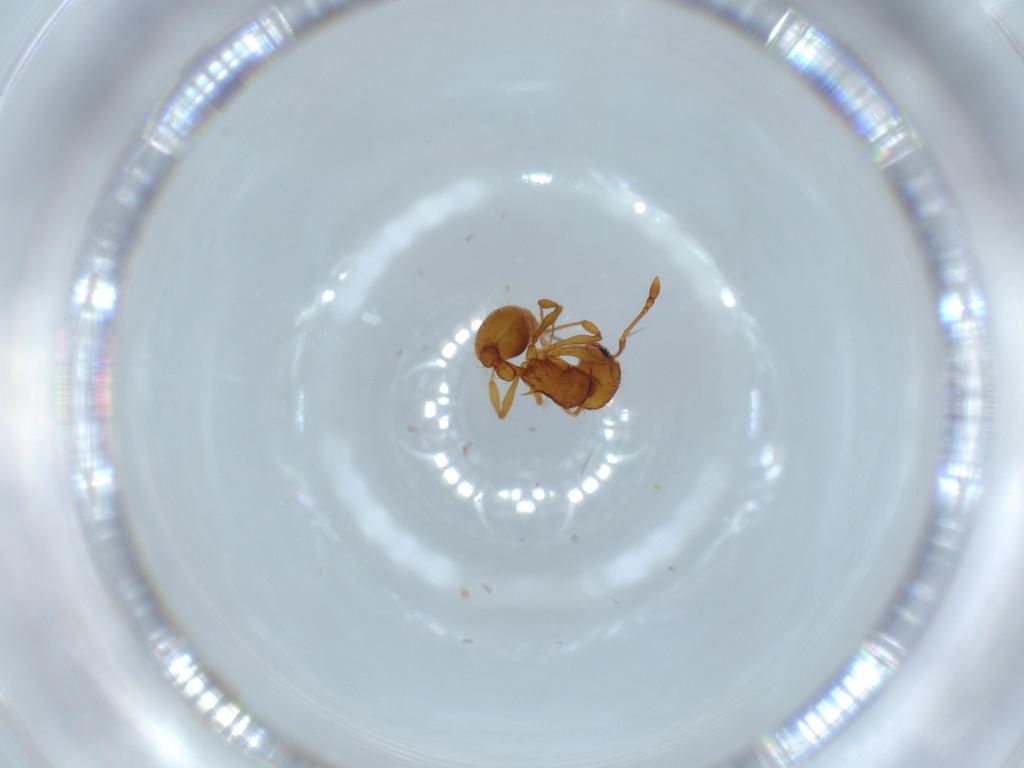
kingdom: Animalia
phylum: Arthropoda
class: Insecta
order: Hymenoptera
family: Formicidae
